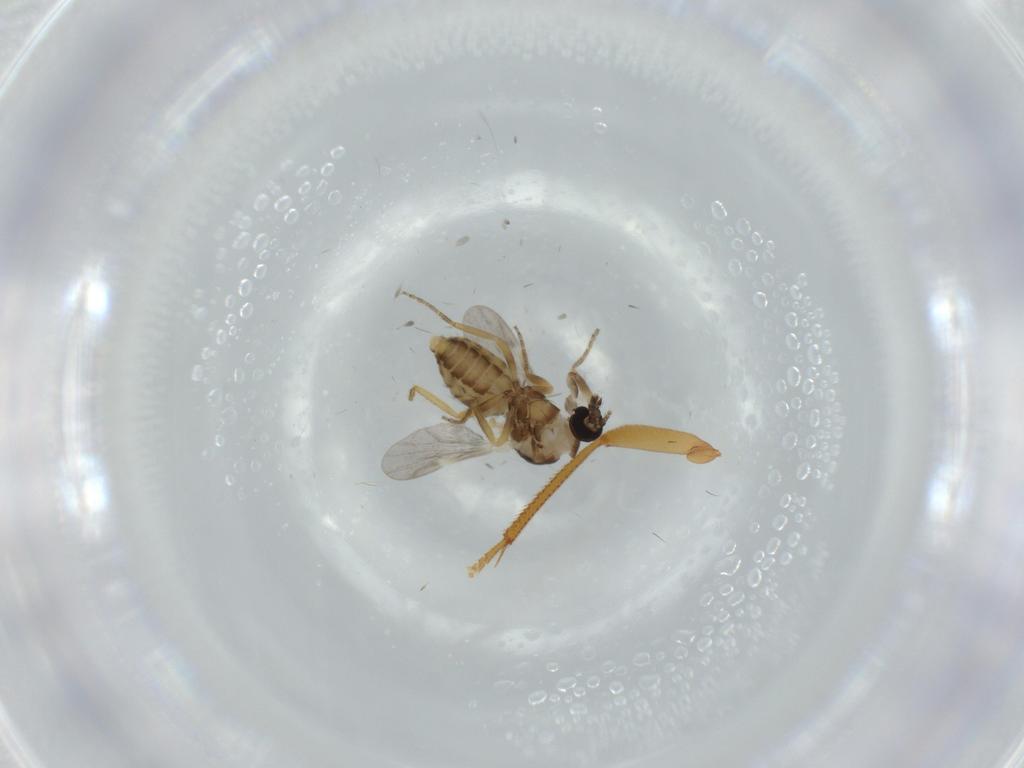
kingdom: Animalia
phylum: Arthropoda
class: Insecta
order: Diptera
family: Ceratopogonidae
